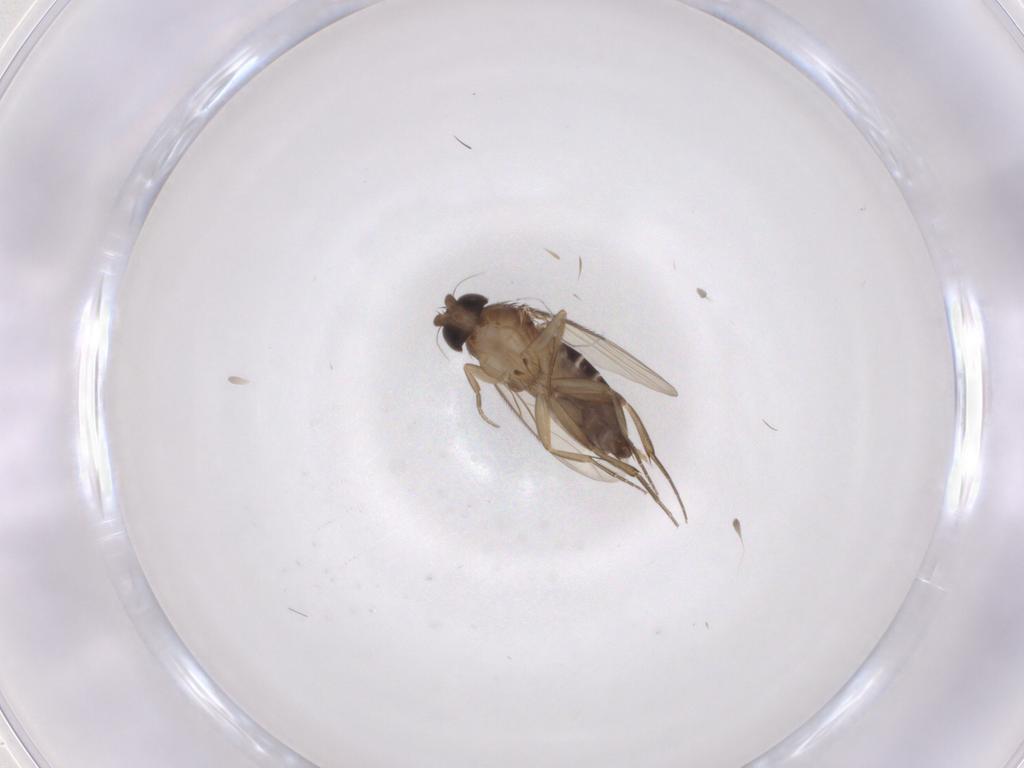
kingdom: Animalia
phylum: Arthropoda
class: Insecta
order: Diptera
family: Phoridae
